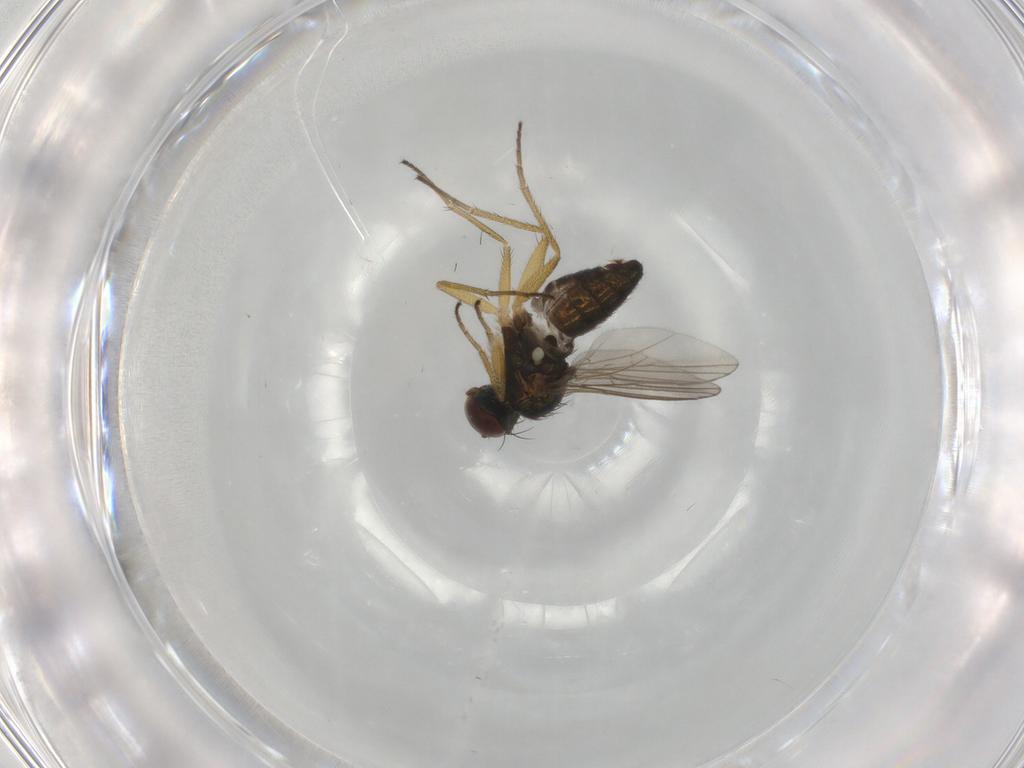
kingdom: Animalia
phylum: Arthropoda
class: Insecta
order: Diptera
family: Dolichopodidae
